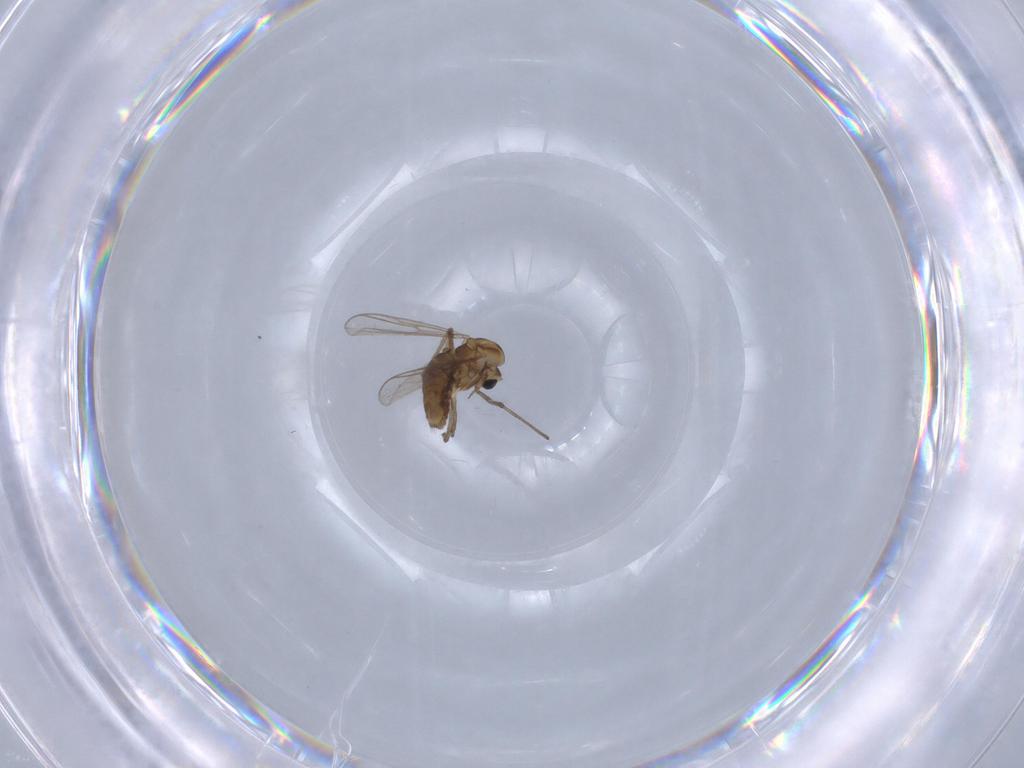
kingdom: Animalia
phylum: Arthropoda
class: Insecta
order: Diptera
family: Chironomidae
